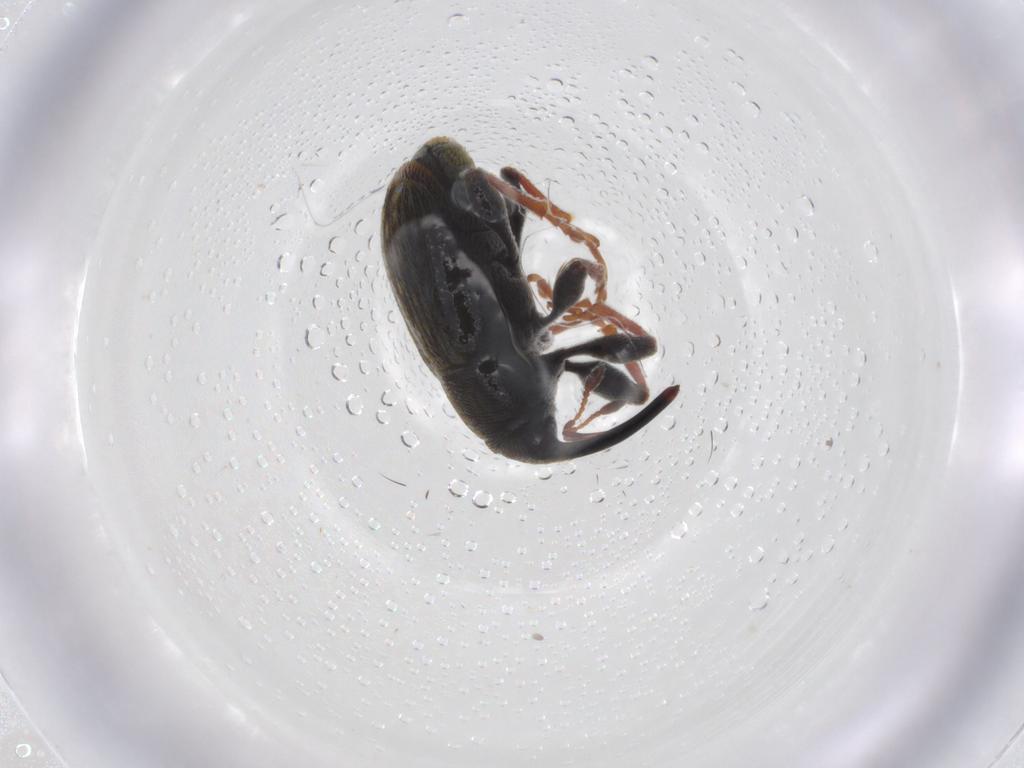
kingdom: Animalia
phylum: Arthropoda
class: Insecta
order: Coleoptera
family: Curculionidae
